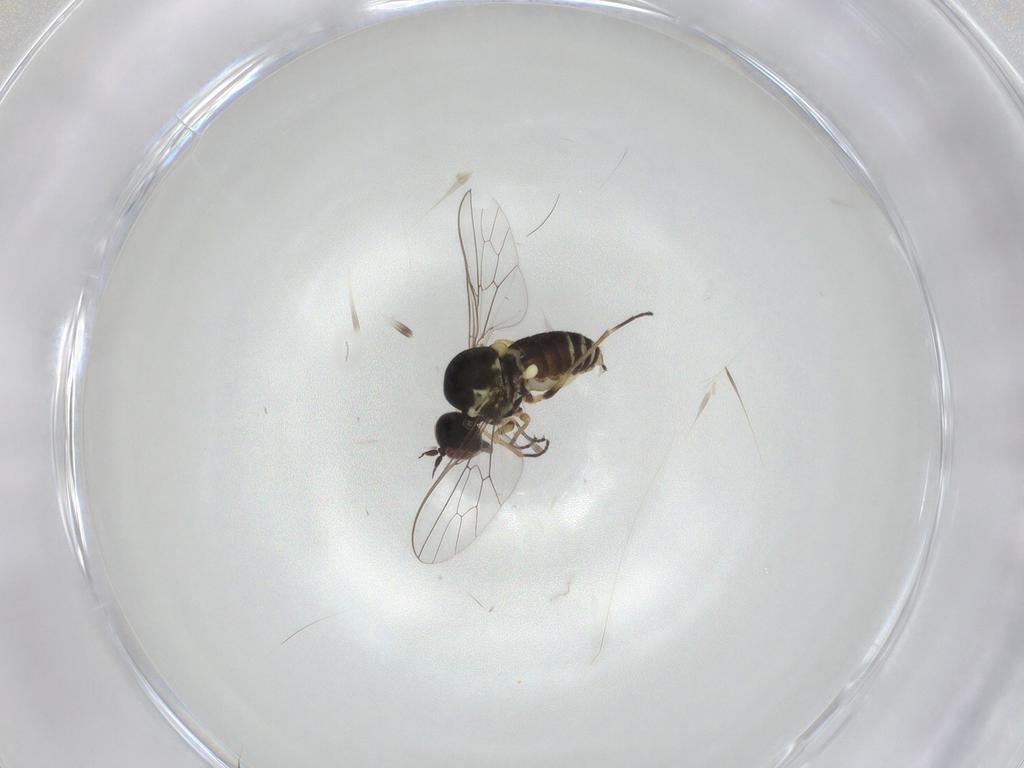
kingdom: Animalia
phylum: Arthropoda
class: Insecta
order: Diptera
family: Bombyliidae
